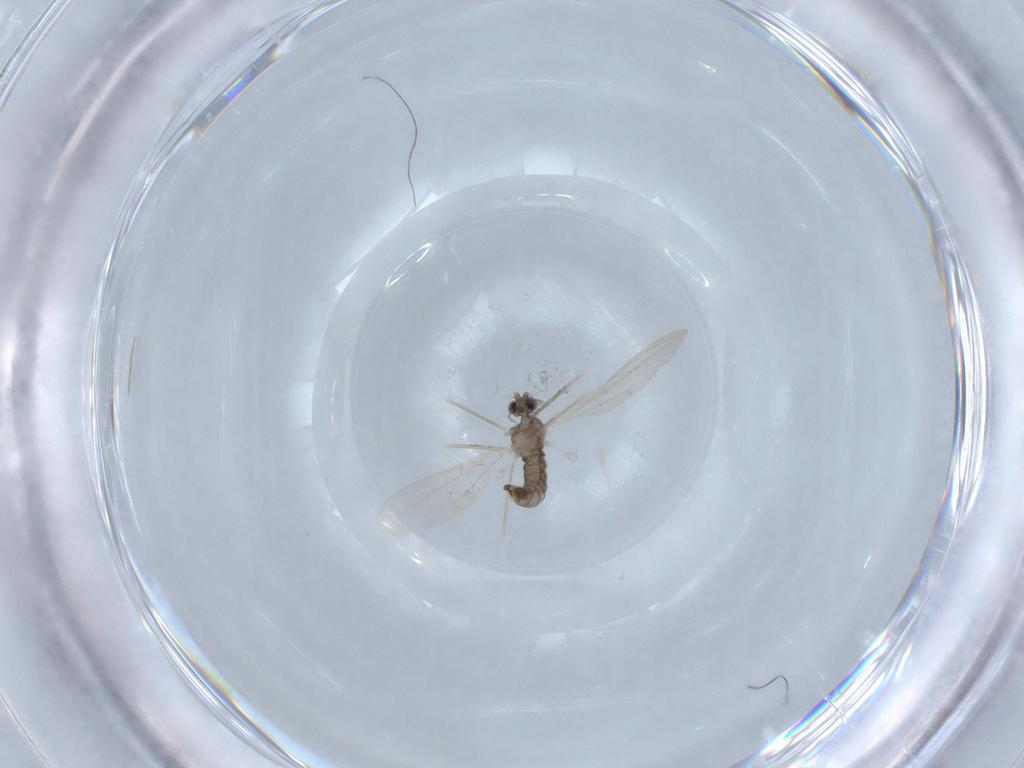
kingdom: Animalia
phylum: Arthropoda
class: Insecta
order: Diptera
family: Cecidomyiidae
